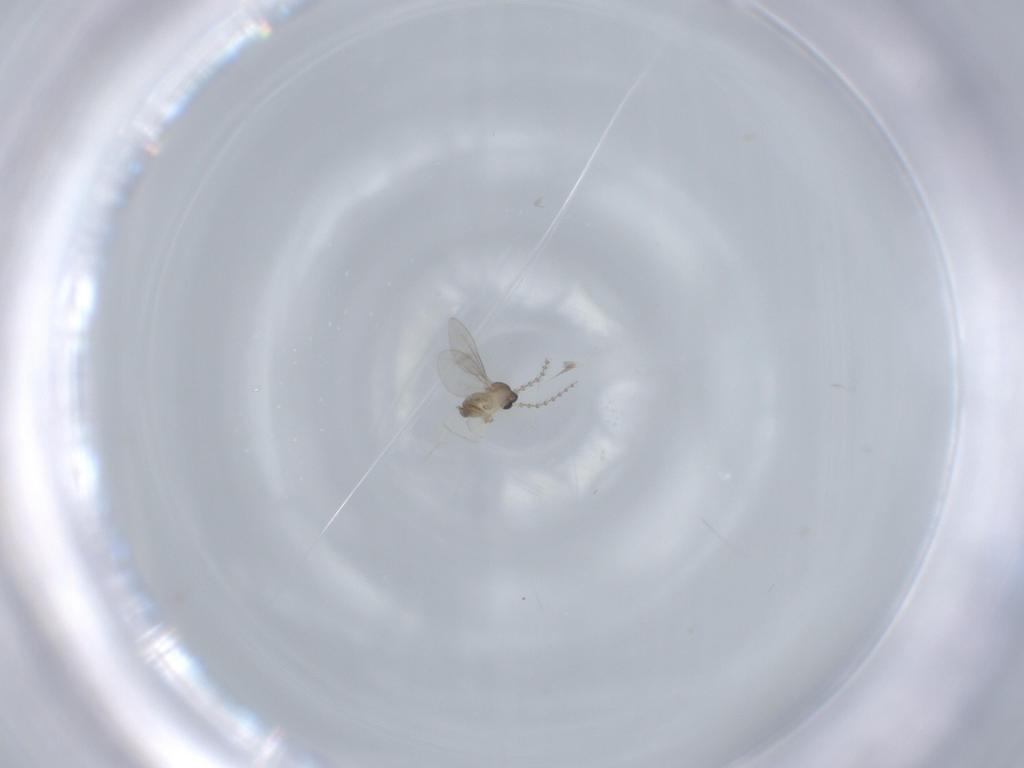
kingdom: Animalia
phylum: Arthropoda
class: Insecta
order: Diptera
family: Cecidomyiidae
